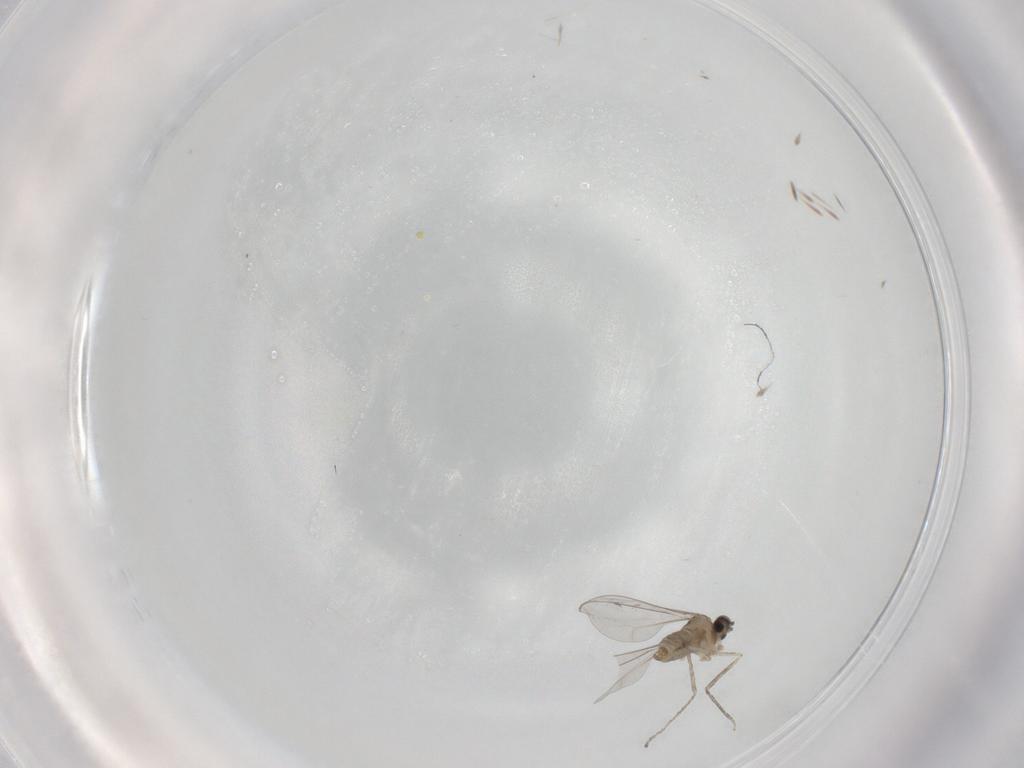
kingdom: Animalia
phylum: Arthropoda
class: Insecta
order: Diptera
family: Cecidomyiidae
